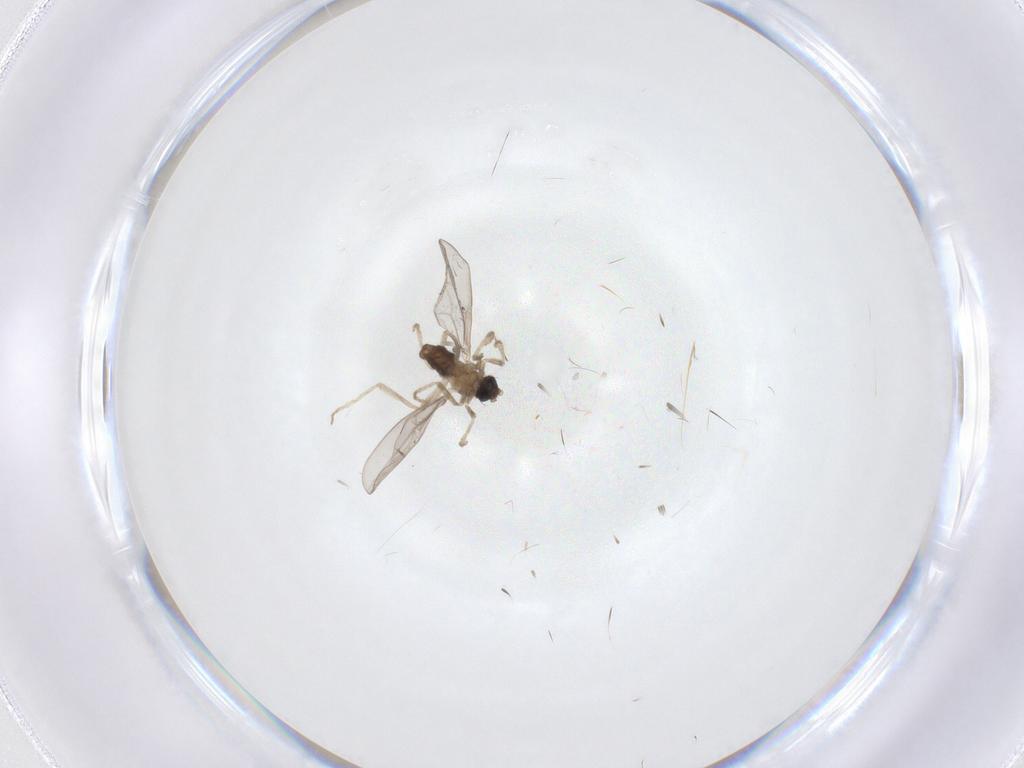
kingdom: Animalia
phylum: Arthropoda
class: Insecta
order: Diptera
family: Cecidomyiidae
